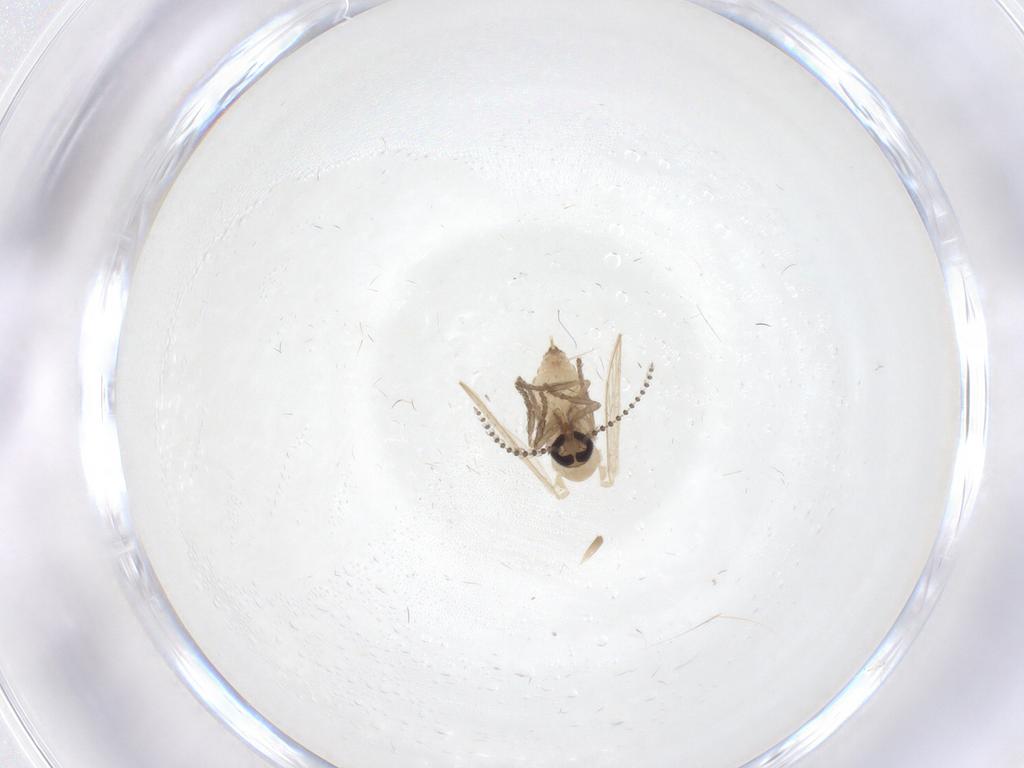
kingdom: Animalia
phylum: Arthropoda
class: Insecta
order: Diptera
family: Psychodidae
